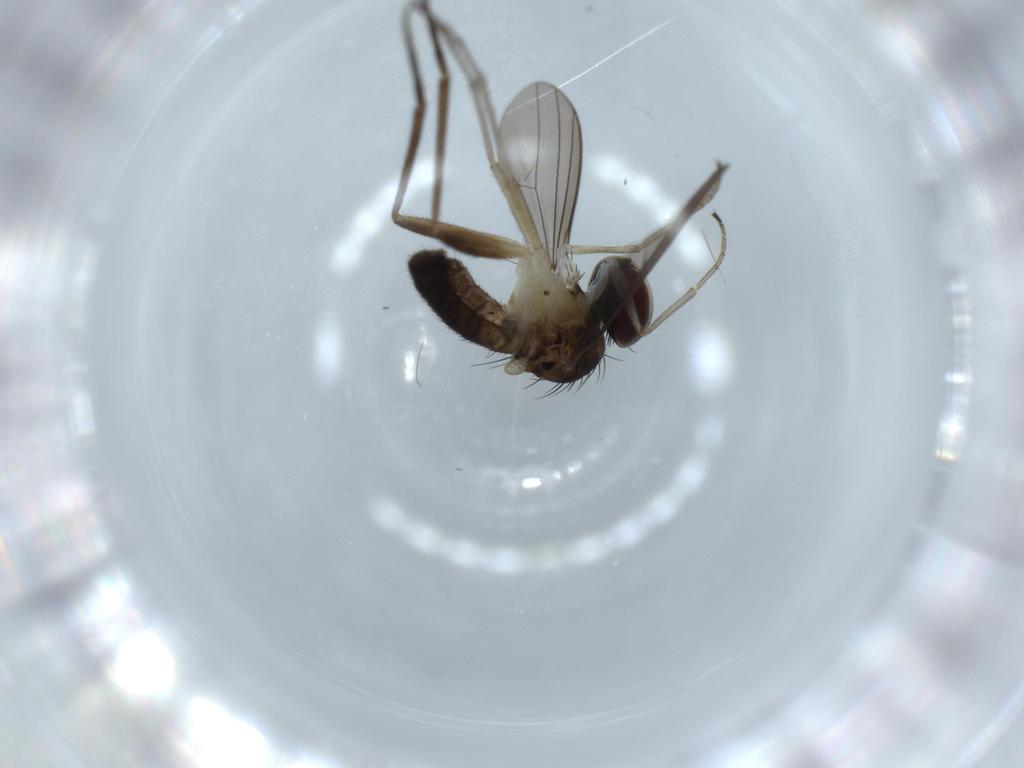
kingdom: Animalia
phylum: Arthropoda
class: Insecta
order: Diptera
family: Dolichopodidae
